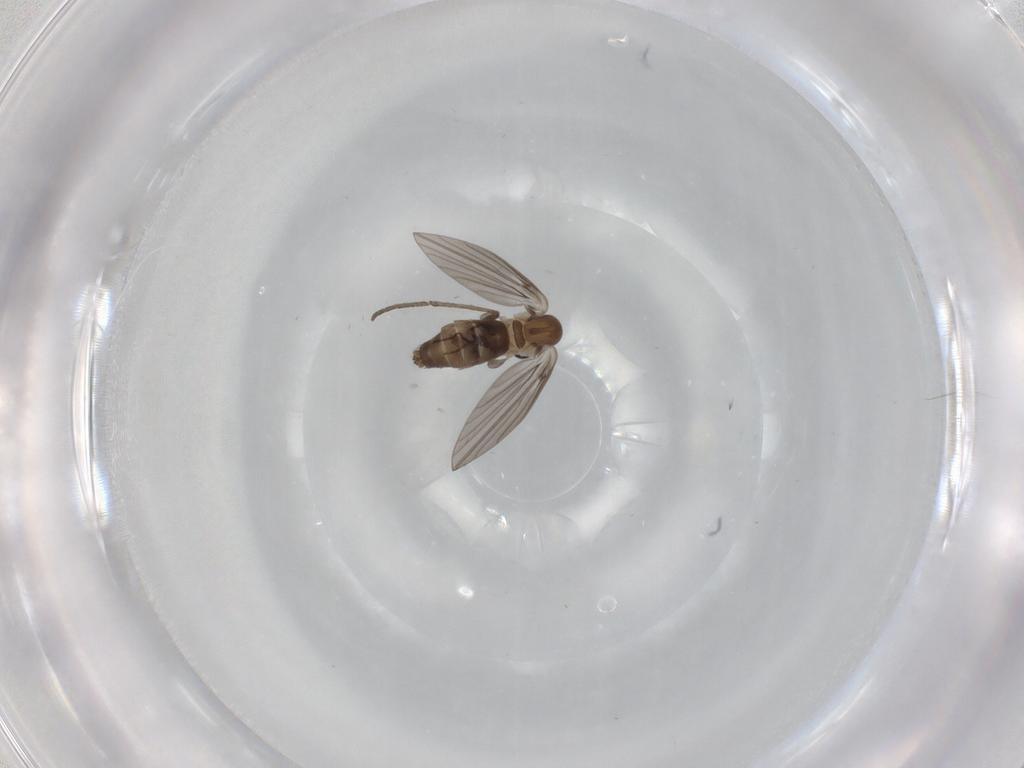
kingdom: Animalia
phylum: Arthropoda
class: Insecta
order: Diptera
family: Psychodidae
